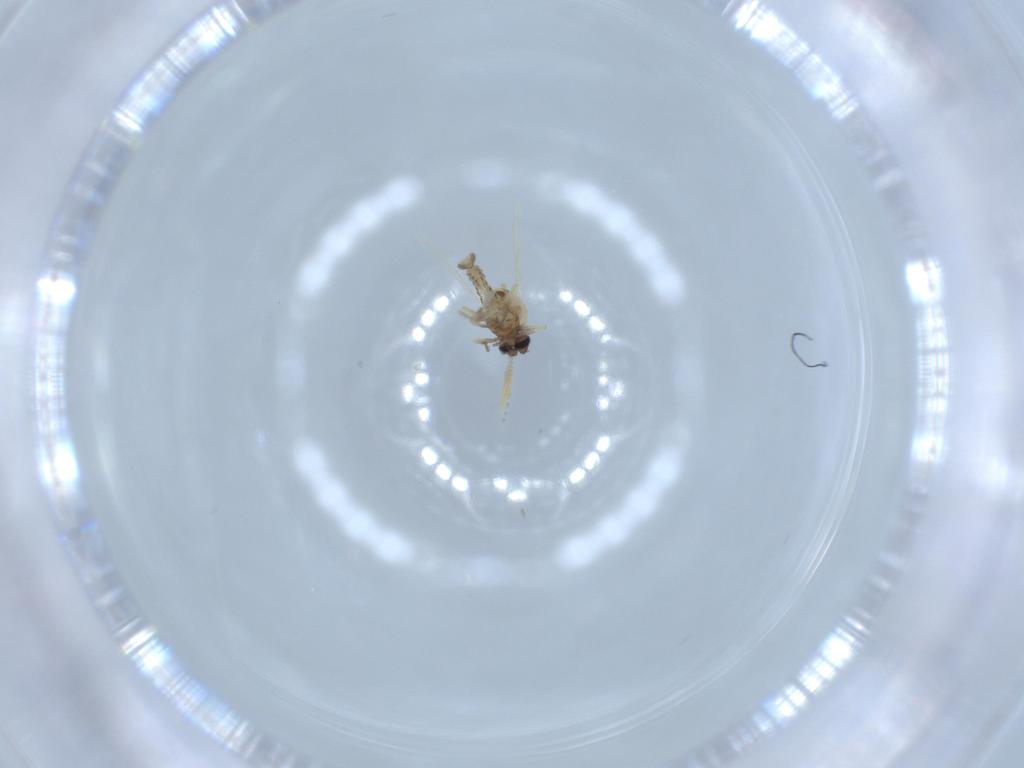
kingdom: Animalia
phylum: Arthropoda
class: Insecta
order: Diptera
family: Ceratopogonidae
